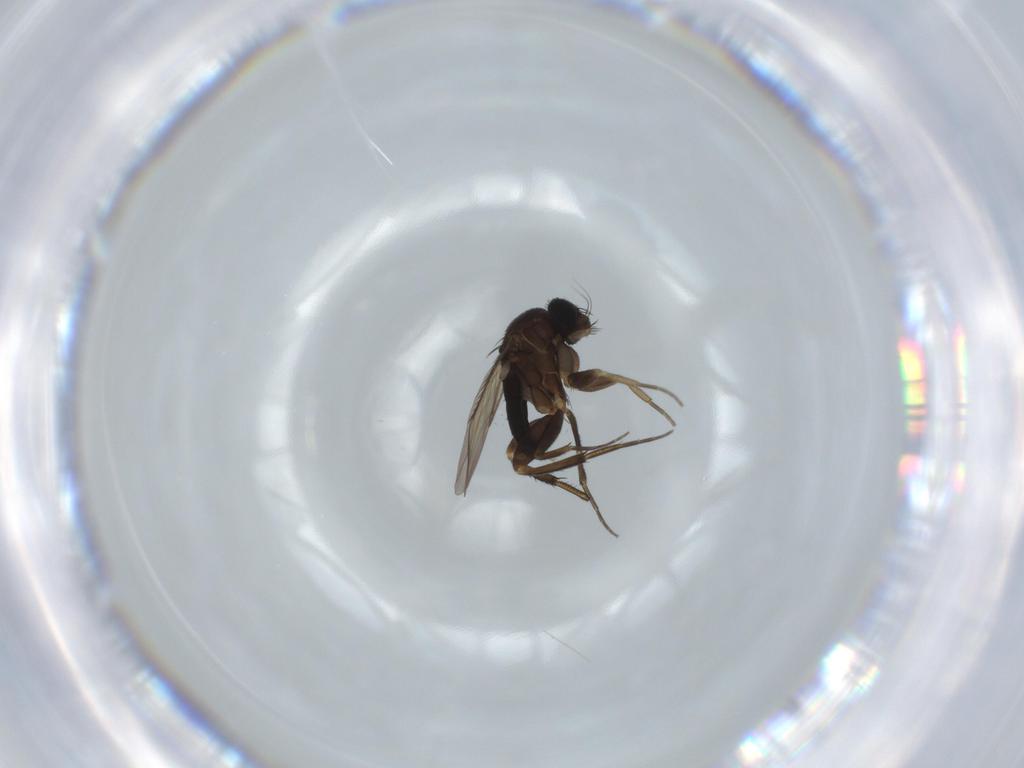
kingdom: Animalia
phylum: Arthropoda
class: Insecta
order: Diptera
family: Phoridae
